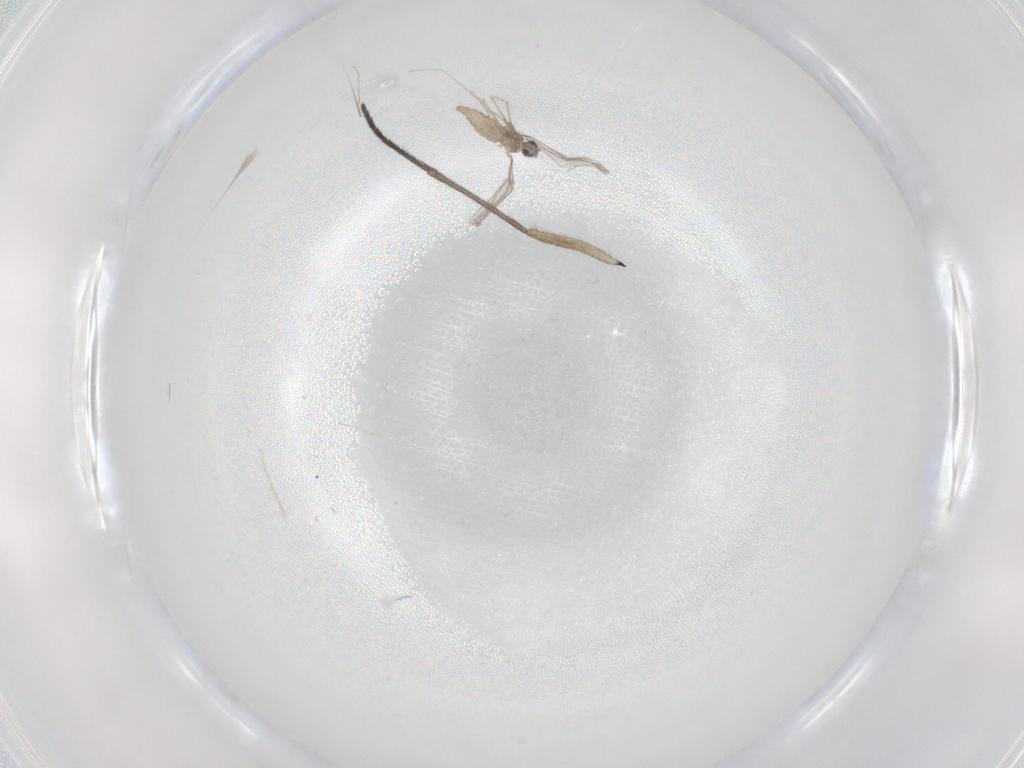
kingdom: Animalia
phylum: Arthropoda
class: Insecta
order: Diptera
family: Sciaridae
